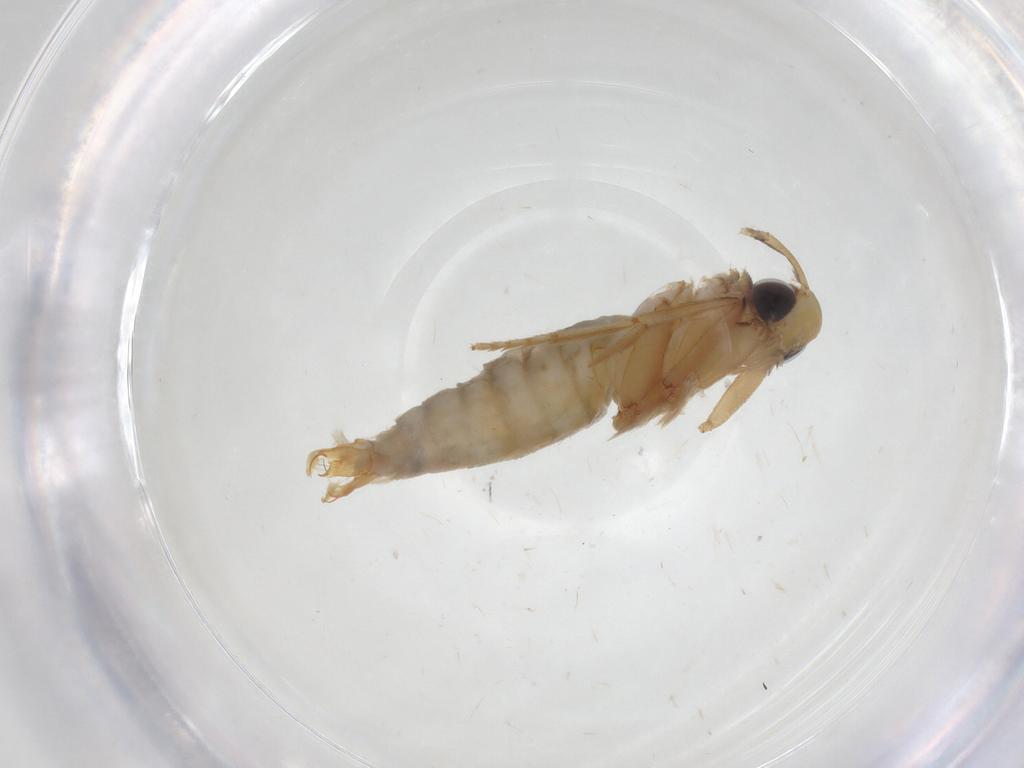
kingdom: Animalia
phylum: Arthropoda
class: Insecta
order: Lepidoptera
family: Tineidae
